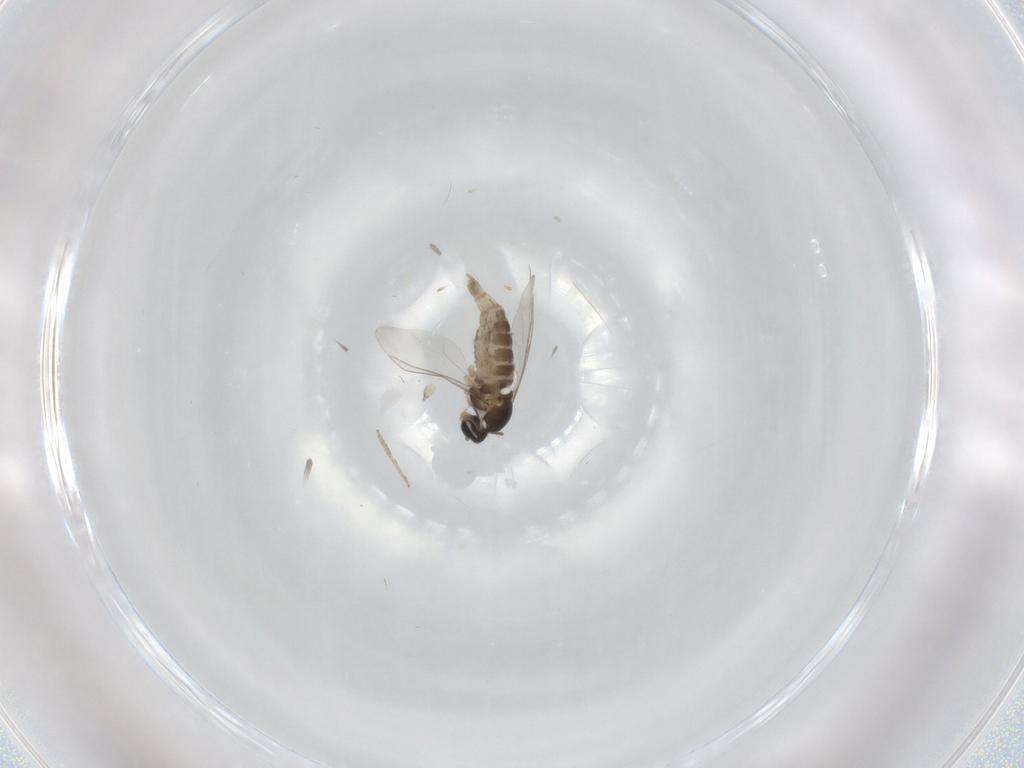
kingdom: Animalia
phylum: Arthropoda
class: Insecta
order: Diptera
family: Cecidomyiidae
